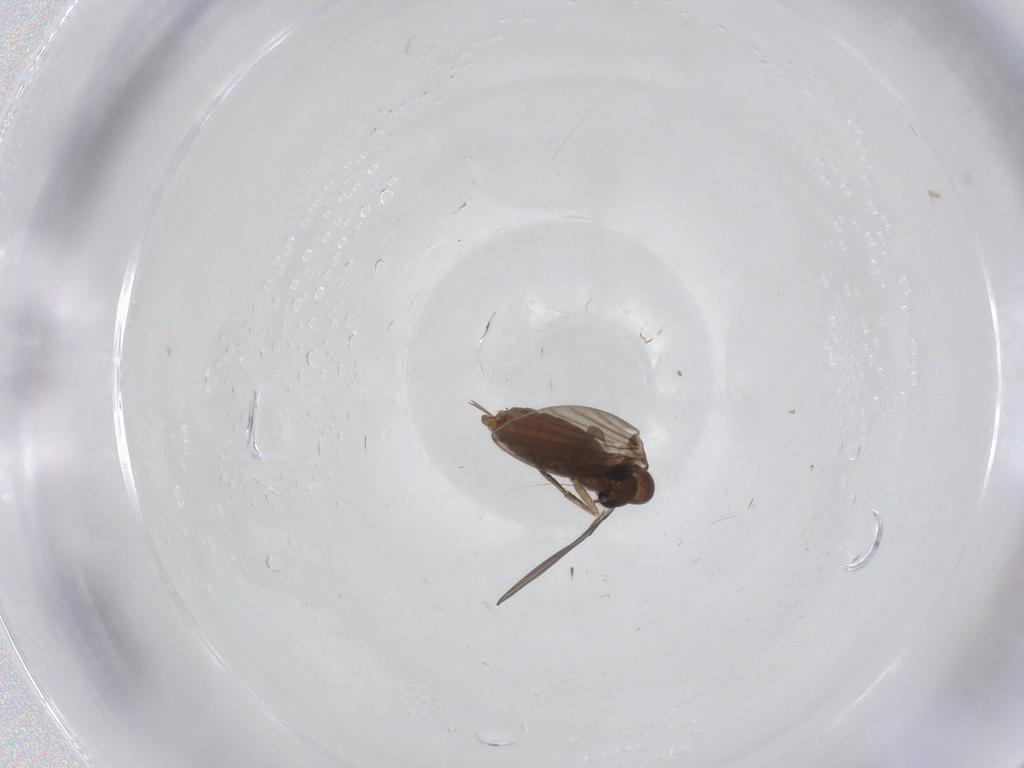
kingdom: Animalia
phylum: Arthropoda
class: Insecta
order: Diptera
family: Psychodidae
